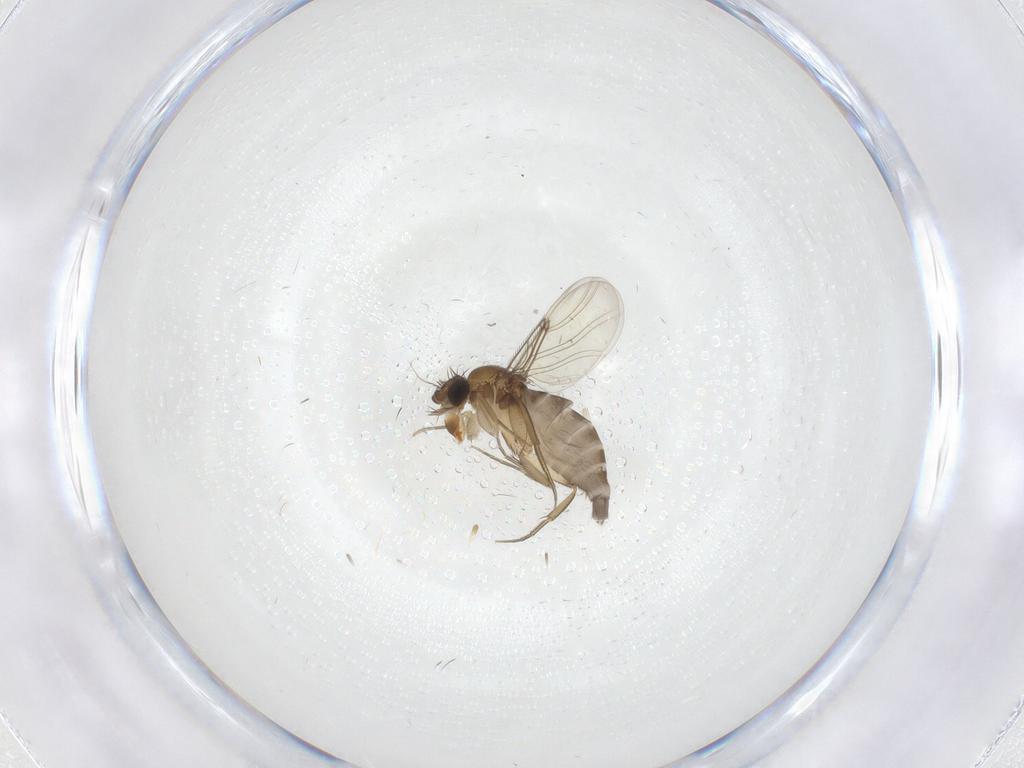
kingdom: Animalia
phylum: Arthropoda
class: Insecta
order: Diptera
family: Phoridae
